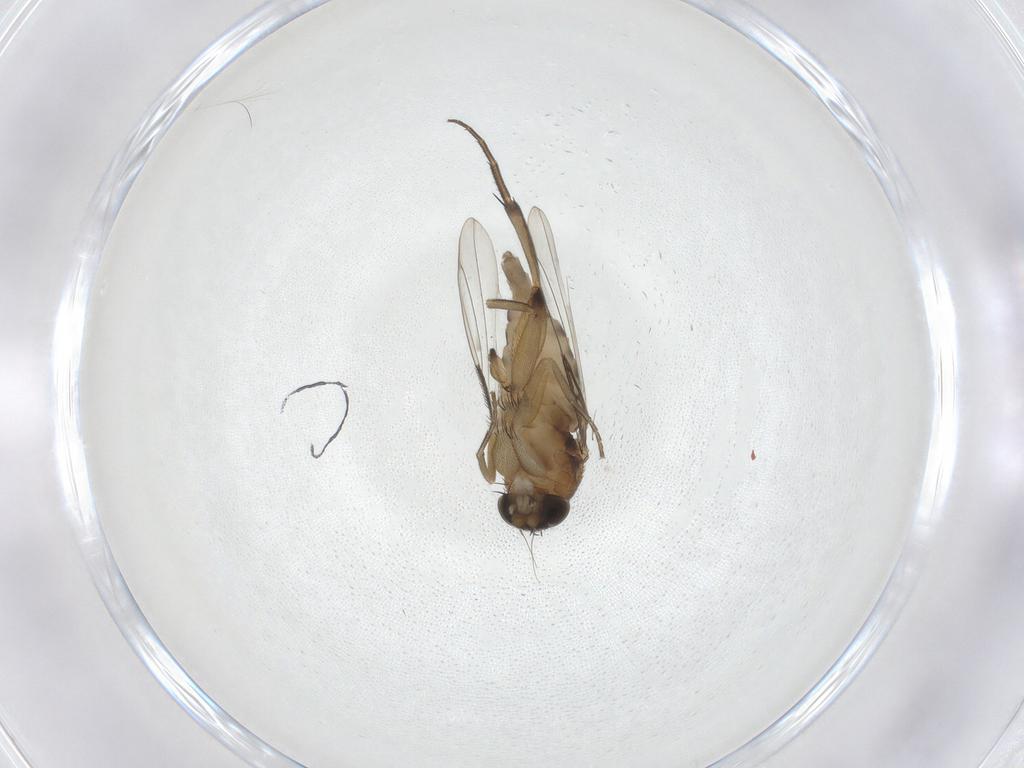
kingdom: Animalia
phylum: Arthropoda
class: Insecta
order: Diptera
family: Phoridae
